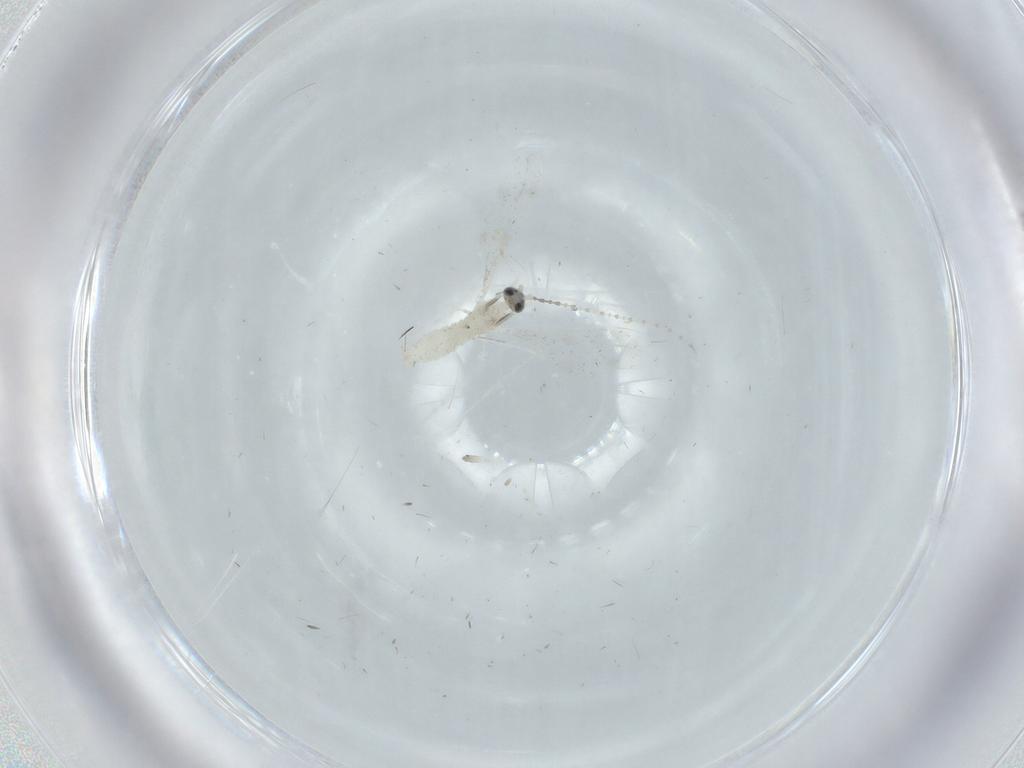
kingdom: Animalia
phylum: Arthropoda
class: Insecta
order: Diptera
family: Cecidomyiidae
